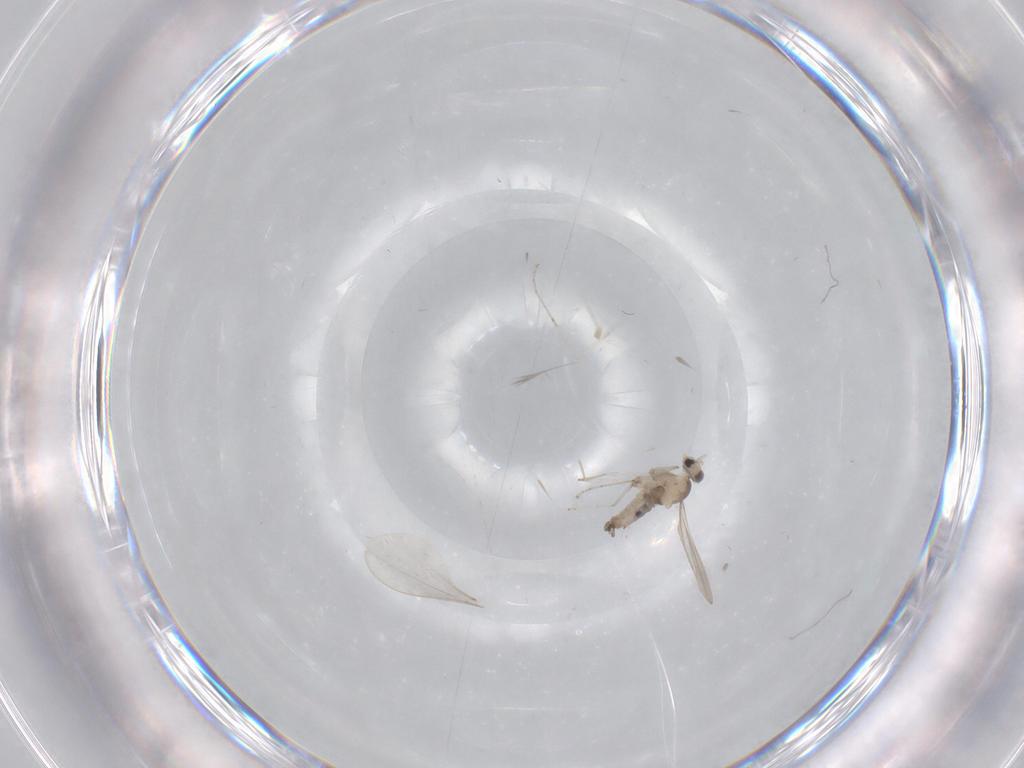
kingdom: Animalia
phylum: Arthropoda
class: Insecta
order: Diptera
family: Cecidomyiidae
